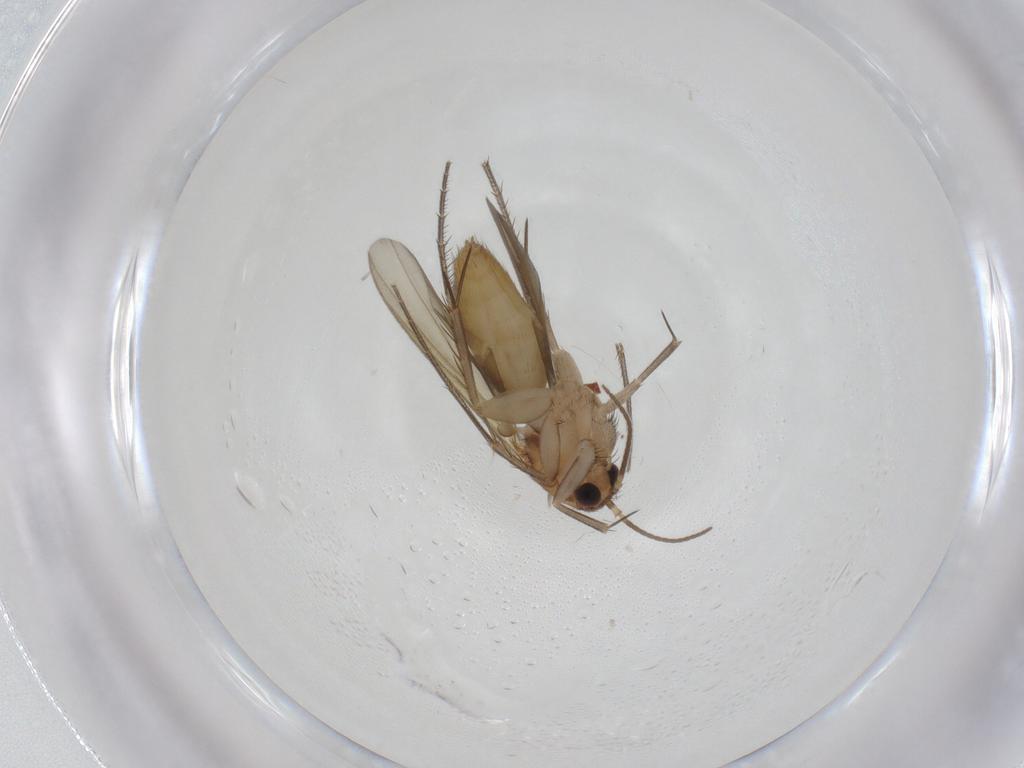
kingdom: Animalia
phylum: Arthropoda
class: Insecta
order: Diptera
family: Mycetophilidae
